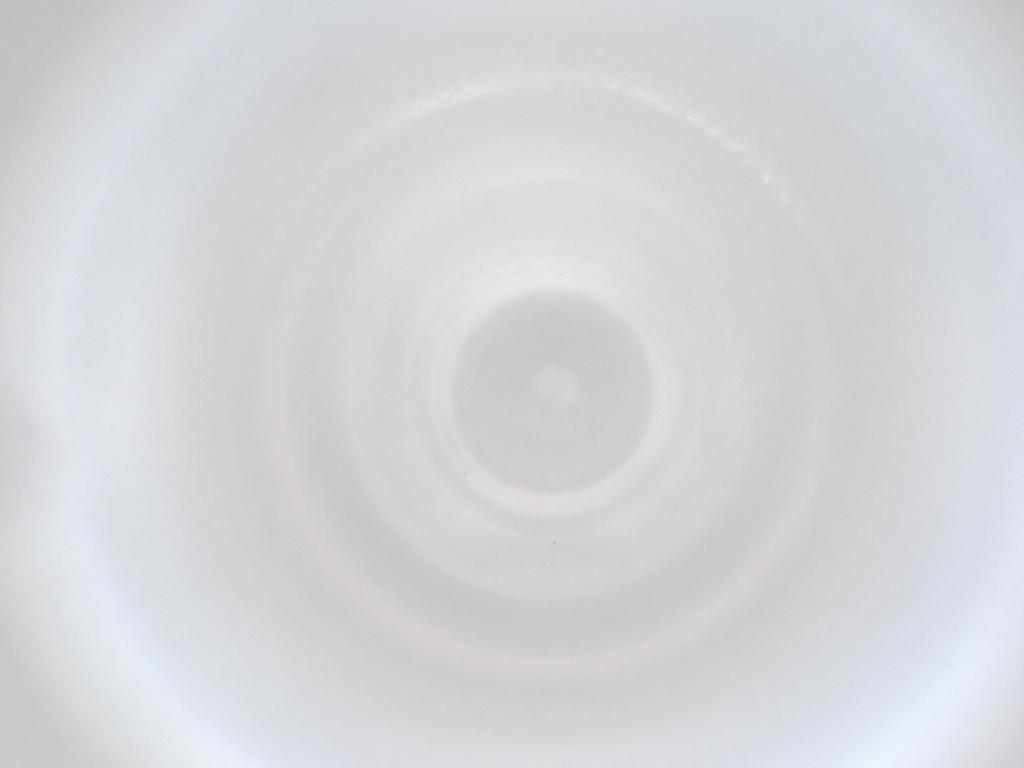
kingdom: Animalia
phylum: Arthropoda
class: Insecta
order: Diptera
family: Cecidomyiidae
